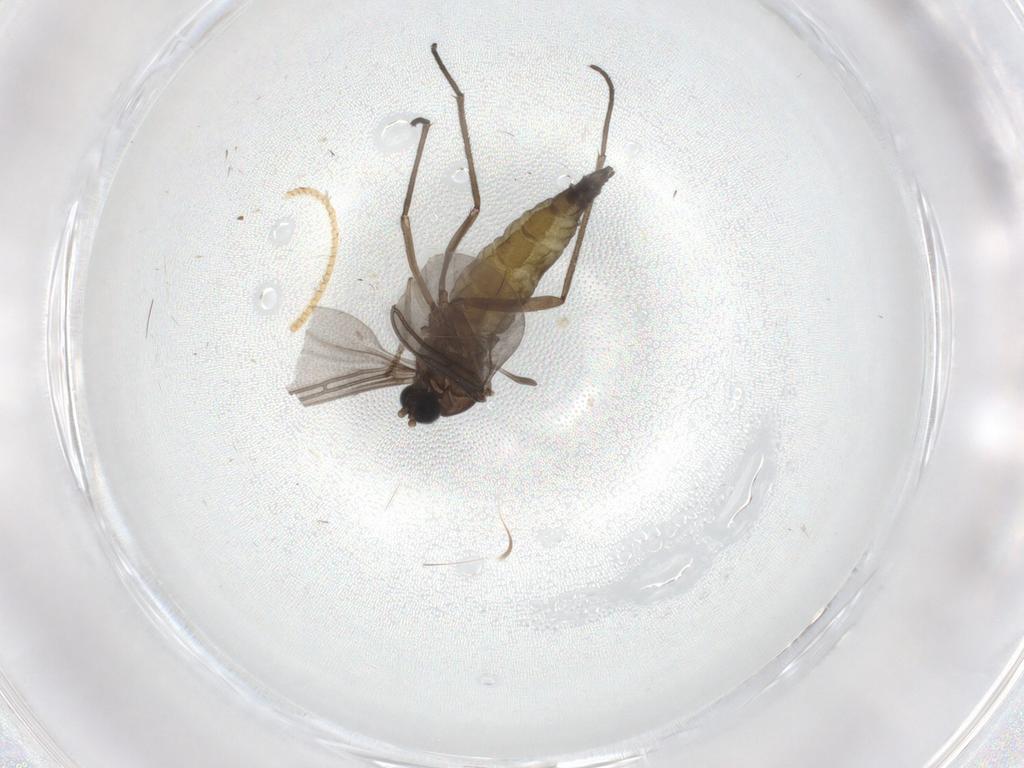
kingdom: Animalia
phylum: Arthropoda
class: Insecta
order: Diptera
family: Sciaridae
